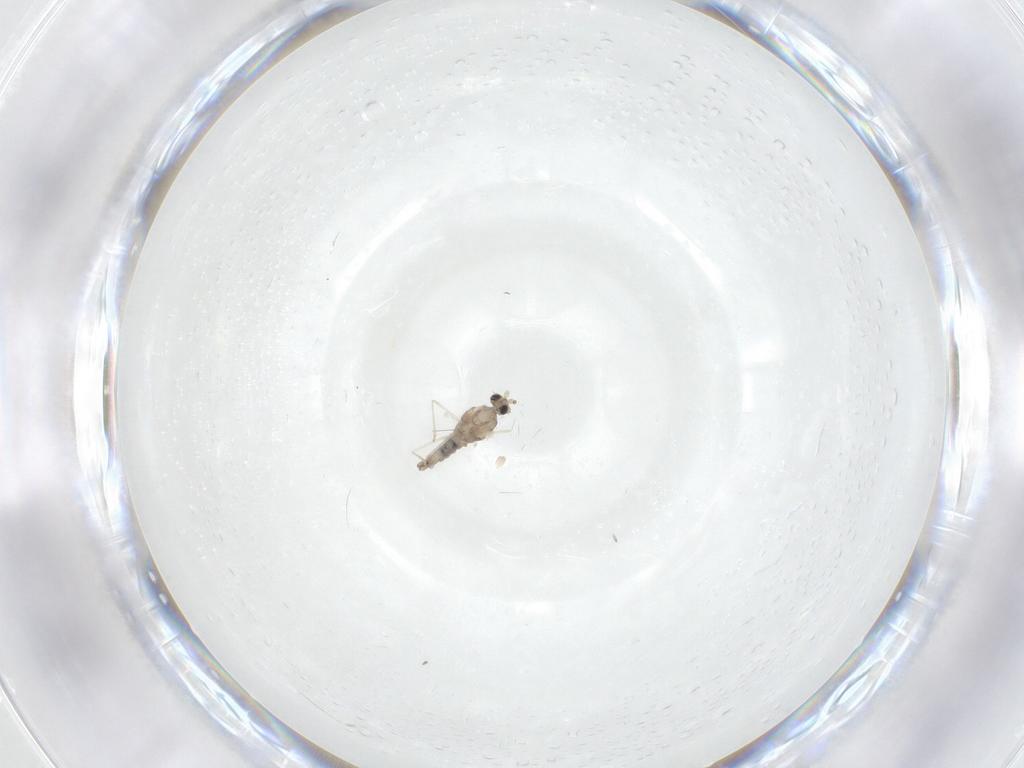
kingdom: Animalia
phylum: Arthropoda
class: Insecta
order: Diptera
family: Cecidomyiidae
